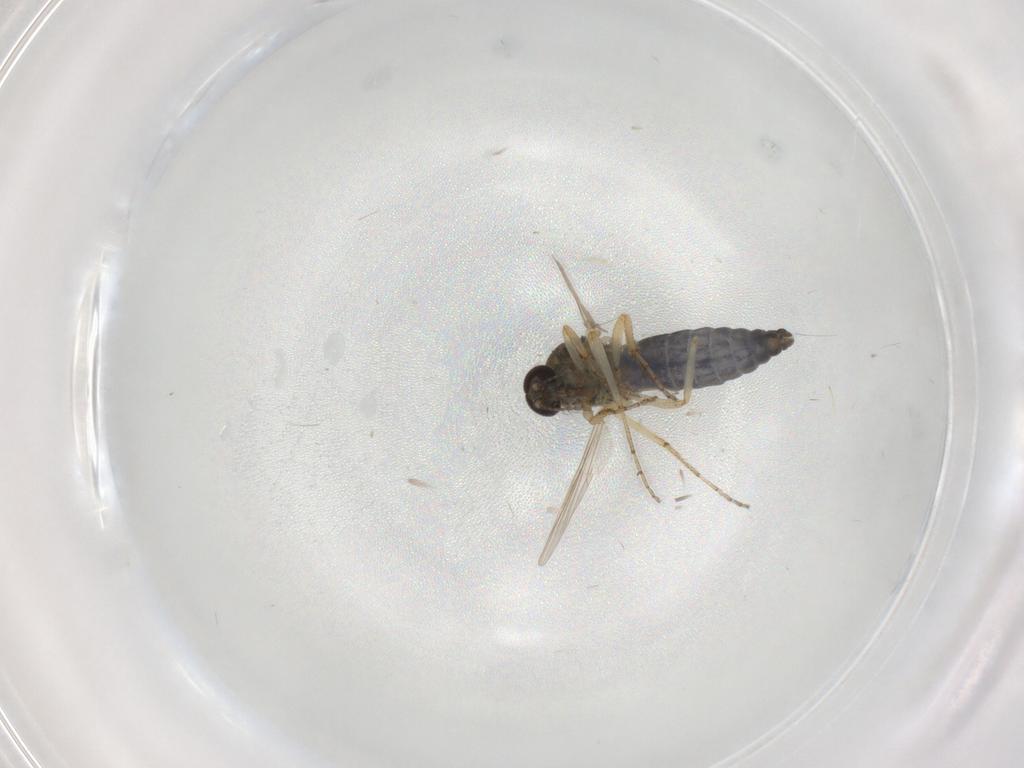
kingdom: Animalia
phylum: Arthropoda
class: Insecta
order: Diptera
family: Ceratopogonidae
